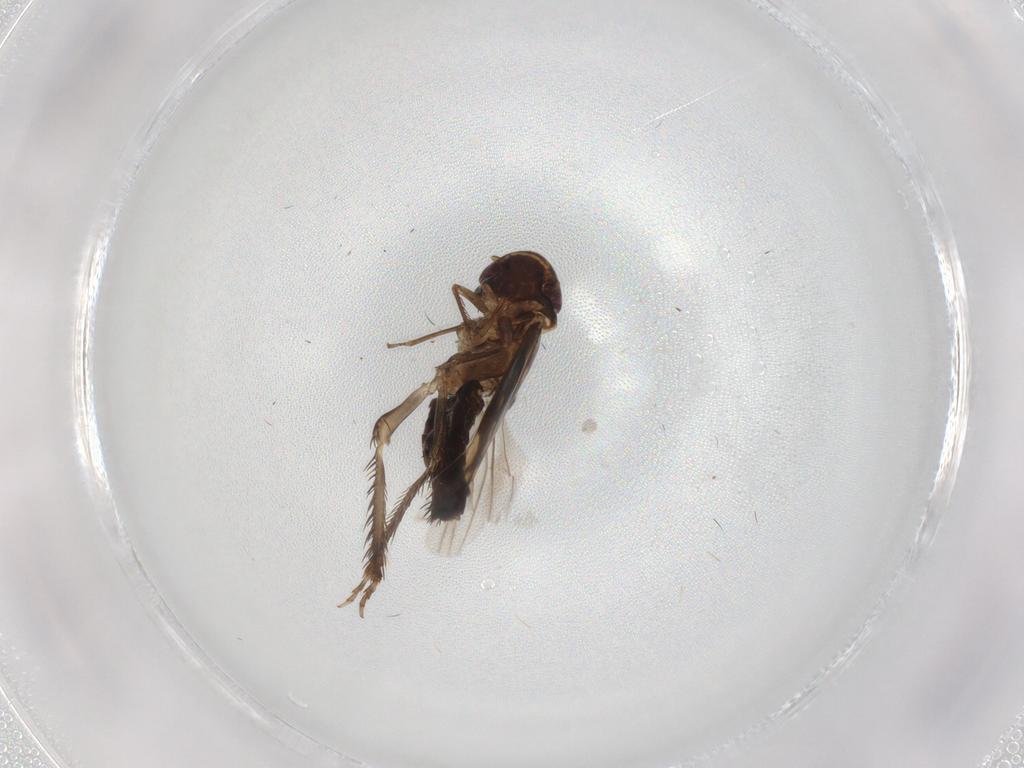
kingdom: Animalia
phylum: Arthropoda
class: Insecta
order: Hemiptera
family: Cicadellidae
